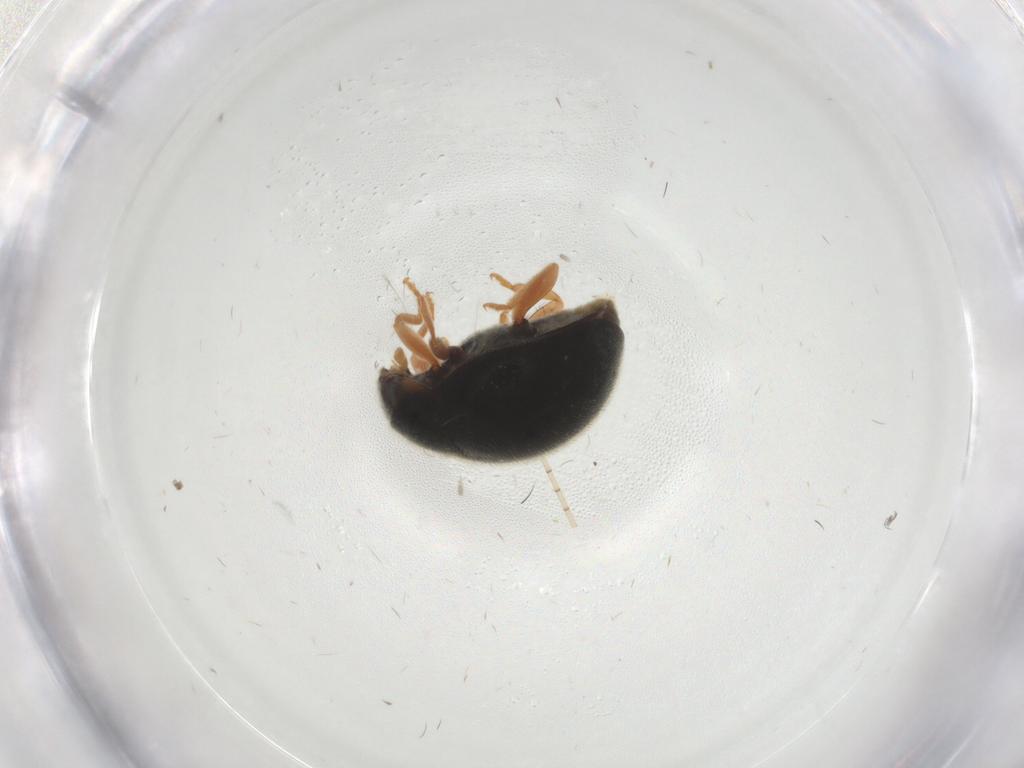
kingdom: Animalia
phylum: Arthropoda
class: Insecta
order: Coleoptera
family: Coccinellidae
